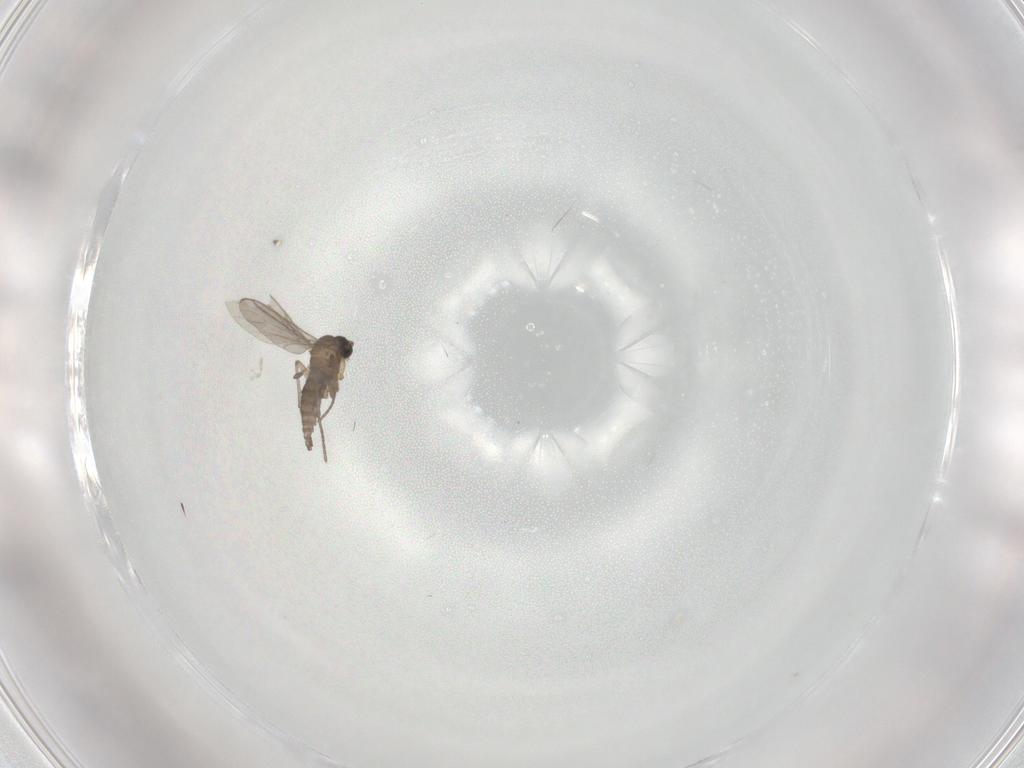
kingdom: Animalia
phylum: Arthropoda
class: Insecta
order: Diptera
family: Sciaridae
